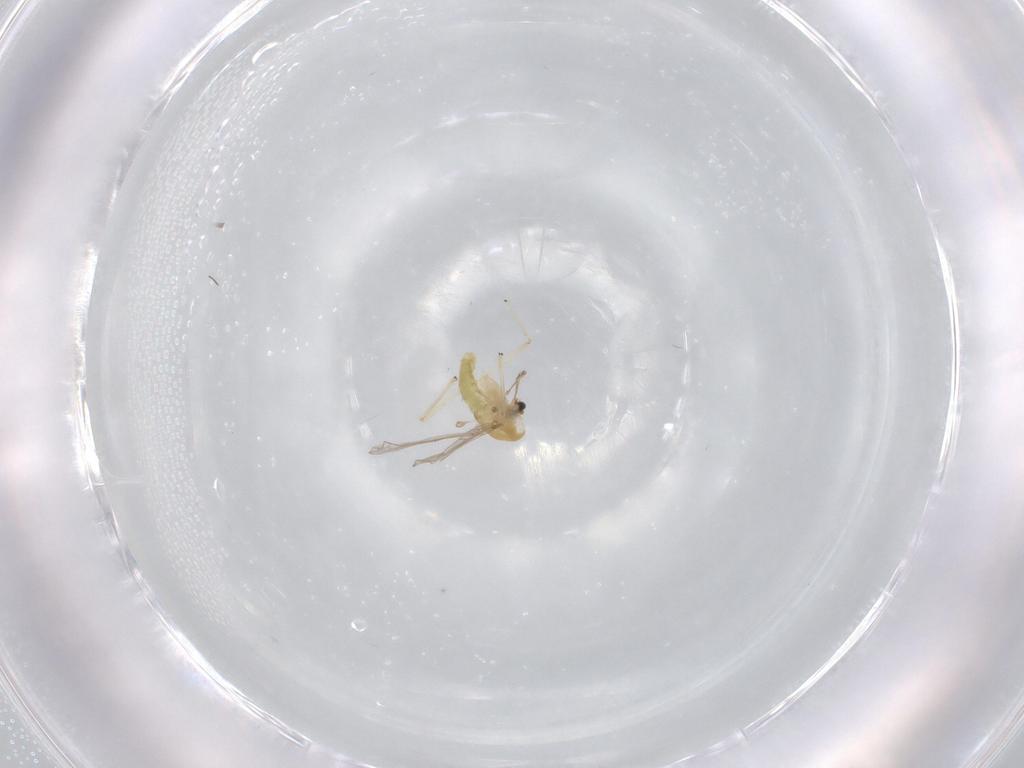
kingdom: Animalia
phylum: Arthropoda
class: Insecta
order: Diptera
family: Chironomidae
